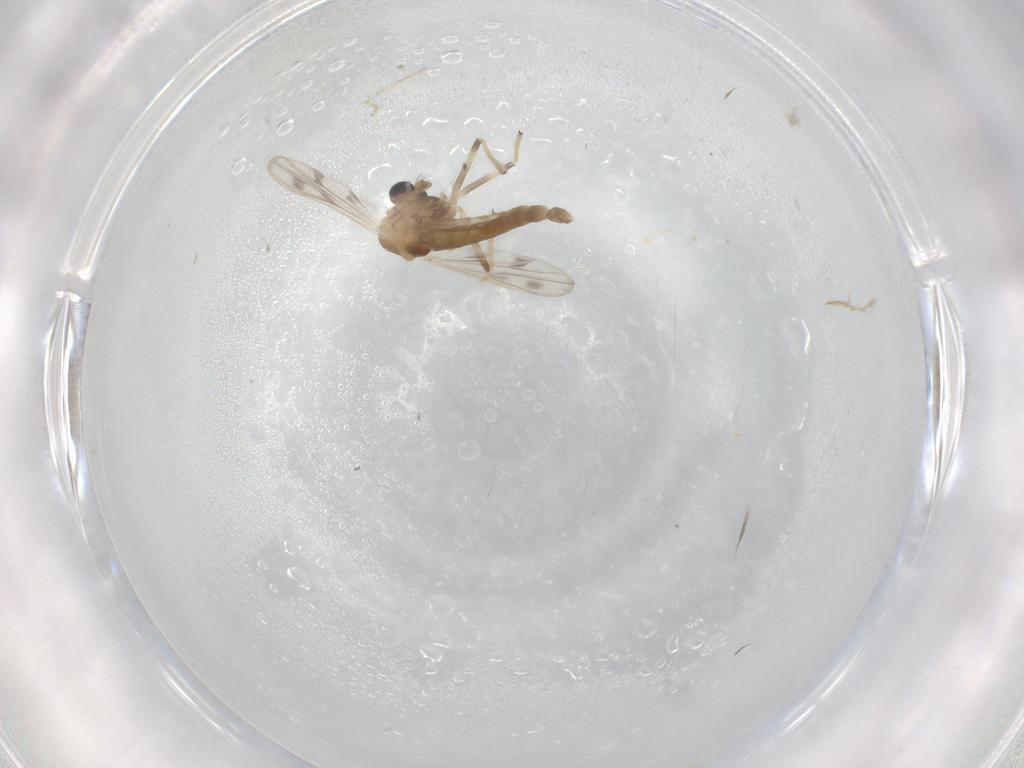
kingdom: Animalia
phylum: Arthropoda
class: Insecta
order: Diptera
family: Chironomidae
